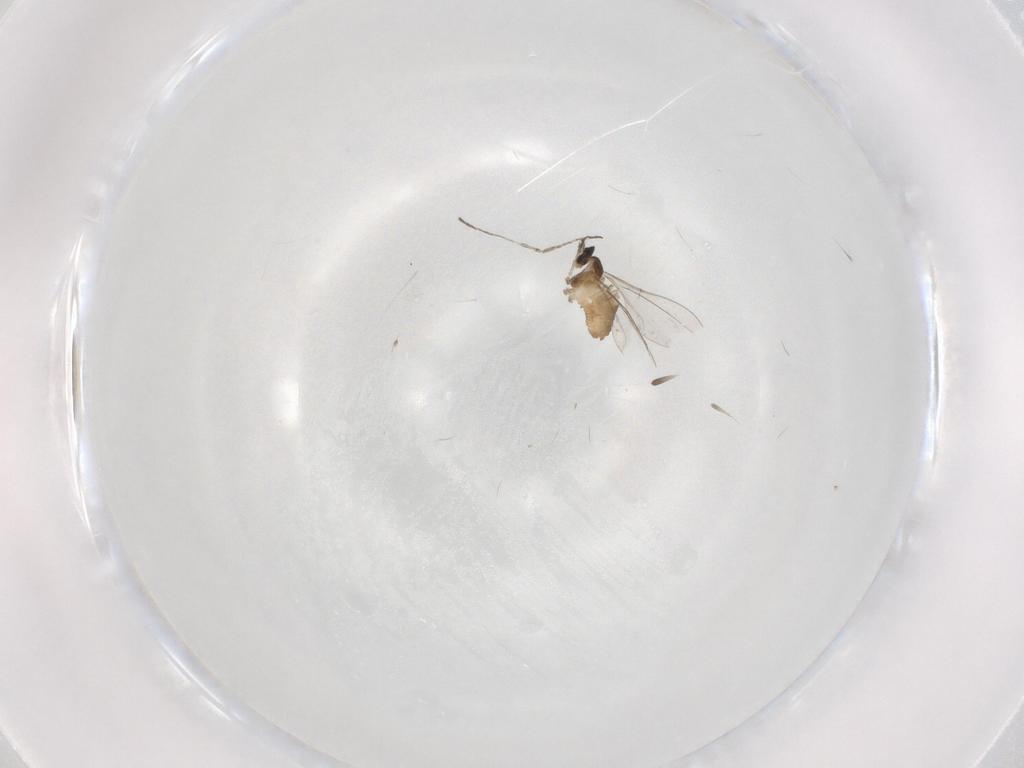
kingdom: Animalia
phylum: Arthropoda
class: Insecta
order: Diptera
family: Cecidomyiidae
